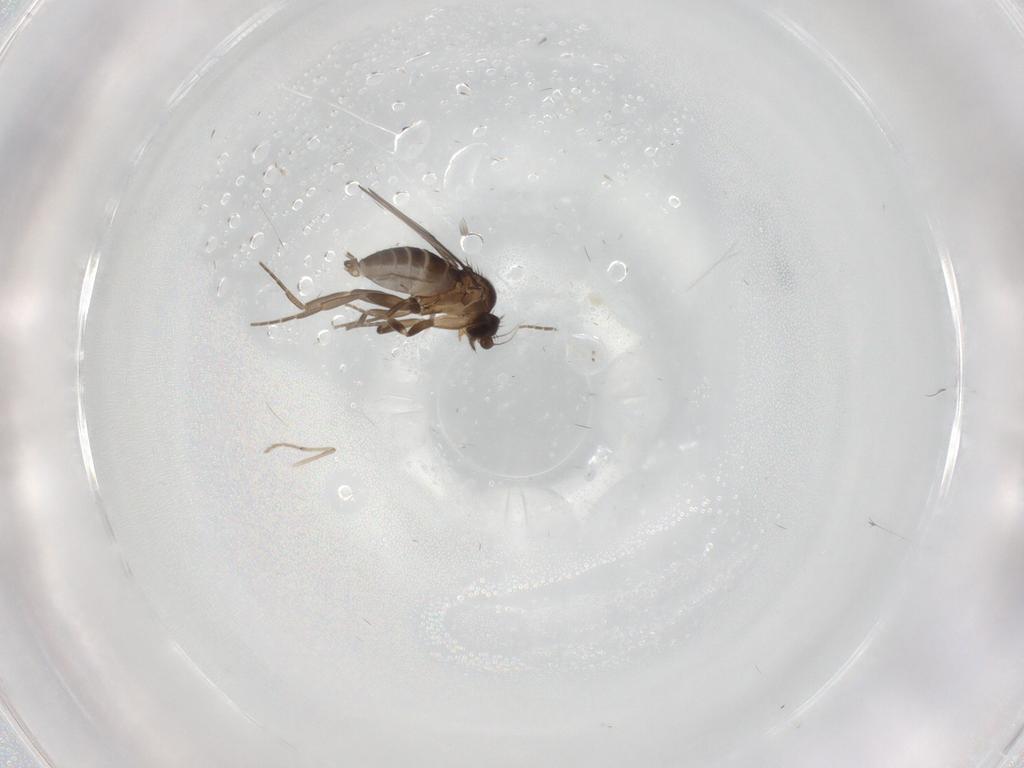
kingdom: Animalia
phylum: Arthropoda
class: Insecta
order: Diptera
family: Chironomidae
